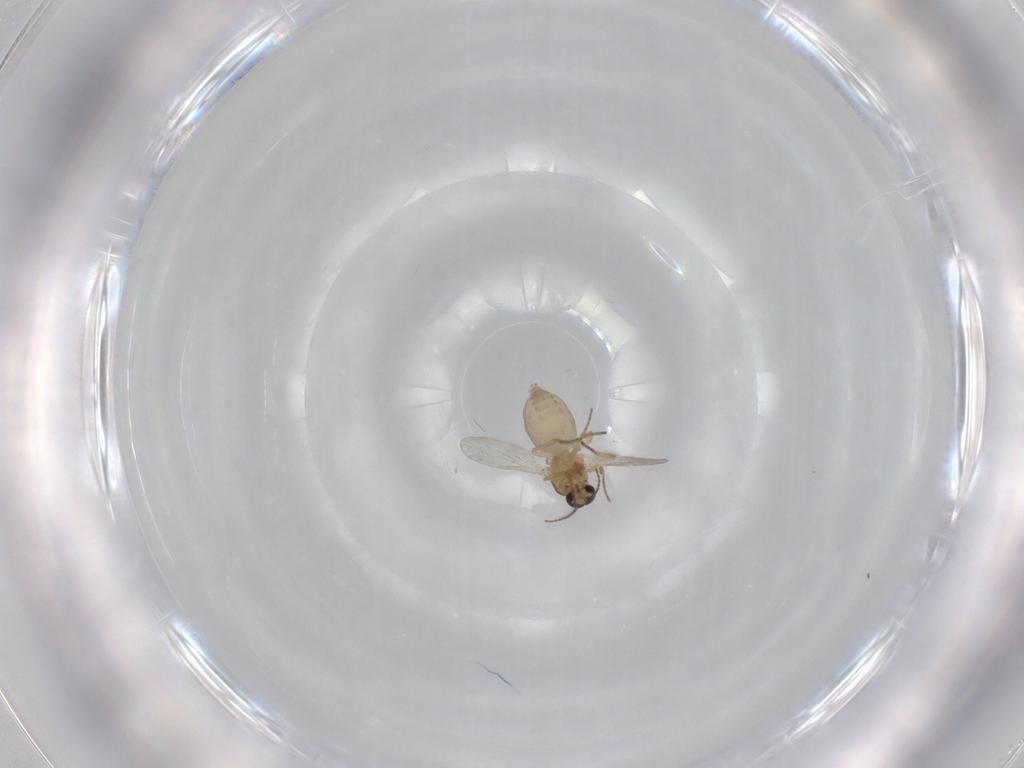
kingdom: Animalia
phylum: Arthropoda
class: Insecta
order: Diptera
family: Ceratopogonidae
